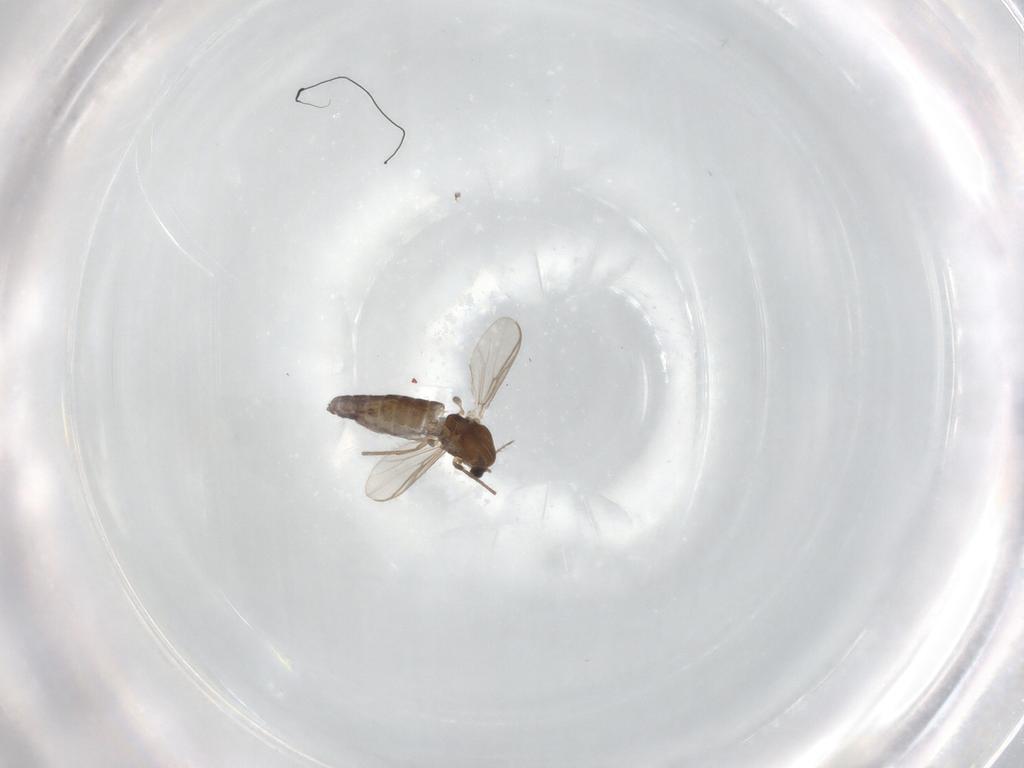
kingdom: Animalia
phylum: Arthropoda
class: Insecta
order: Diptera
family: Chironomidae
